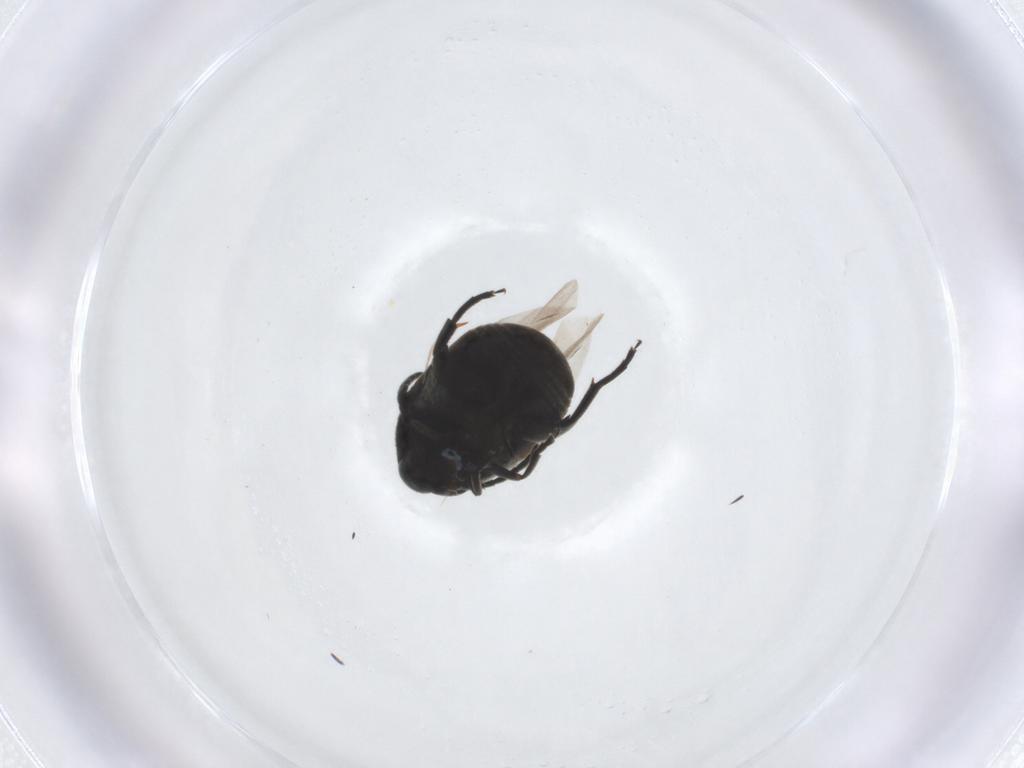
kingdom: Animalia
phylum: Arthropoda
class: Insecta
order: Coleoptera
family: Chrysomelidae
